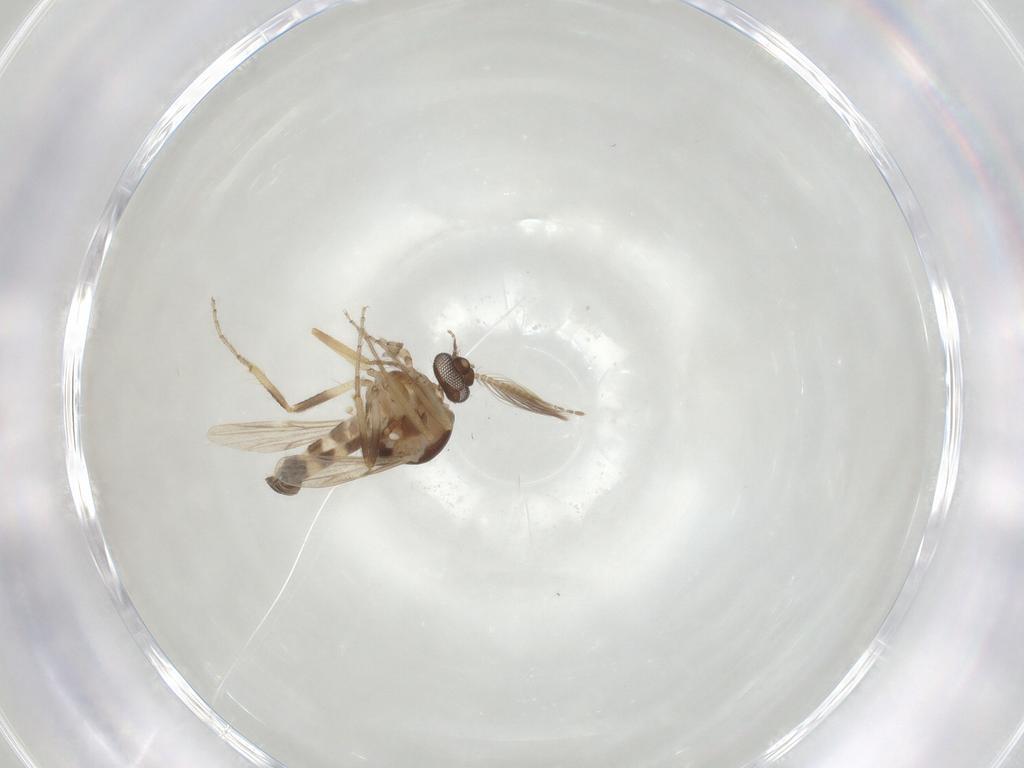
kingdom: Animalia
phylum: Arthropoda
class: Insecta
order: Diptera
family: Ceratopogonidae
